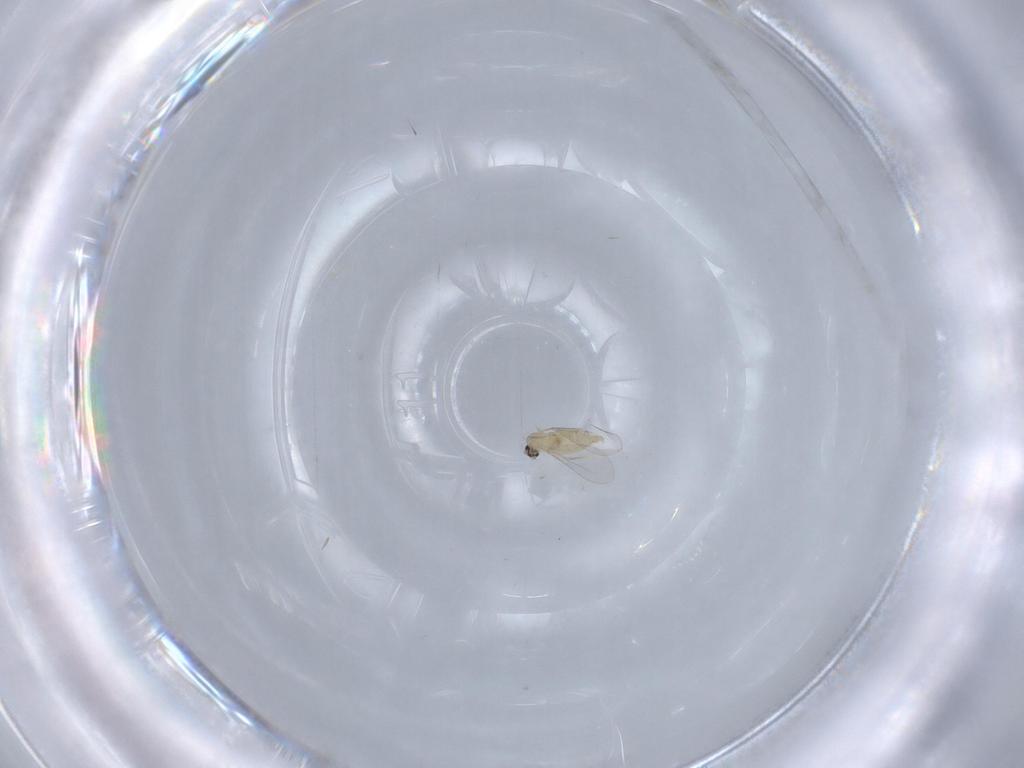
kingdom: Animalia
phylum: Arthropoda
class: Insecta
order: Diptera
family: Cecidomyiidae
